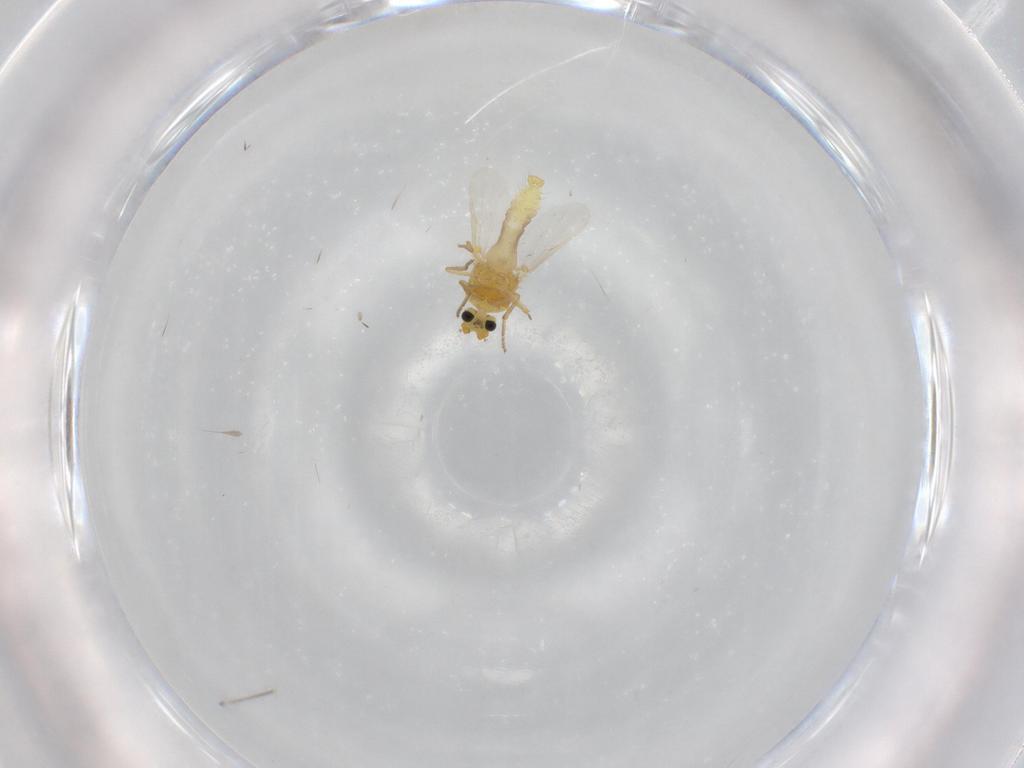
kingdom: Animalia
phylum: Arthropoda
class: Insecta
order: Diptera
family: Ceratopogonidae
